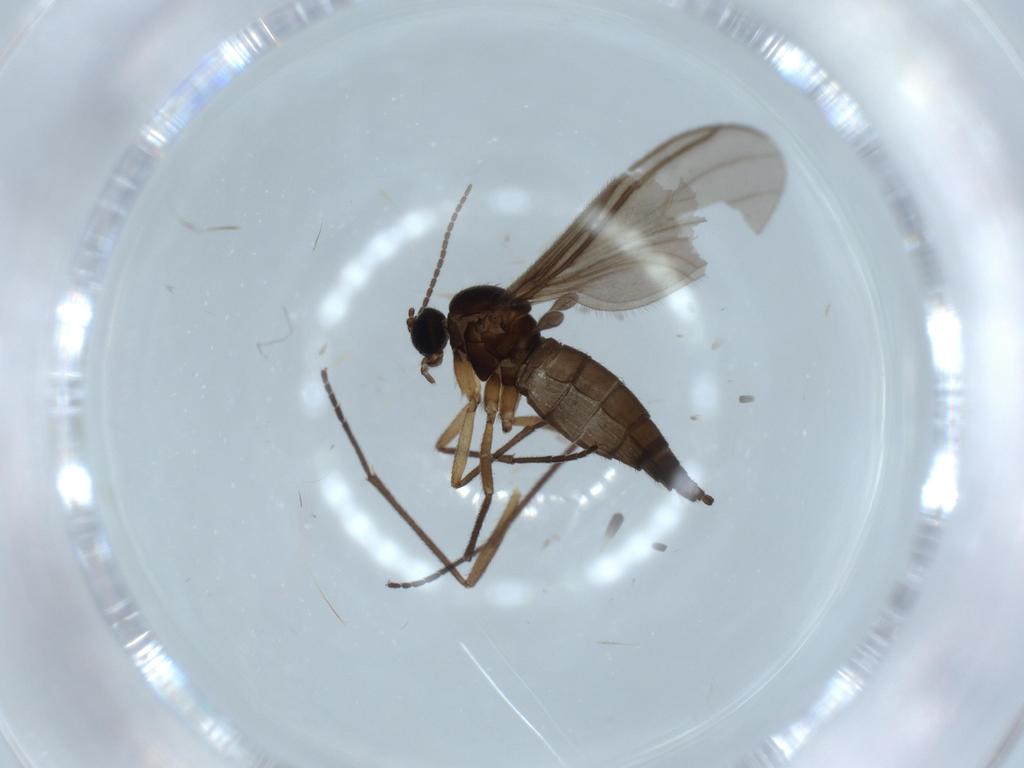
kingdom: Animalia
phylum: Arthropoda
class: Insecta
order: Diptera
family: Sciaridae
